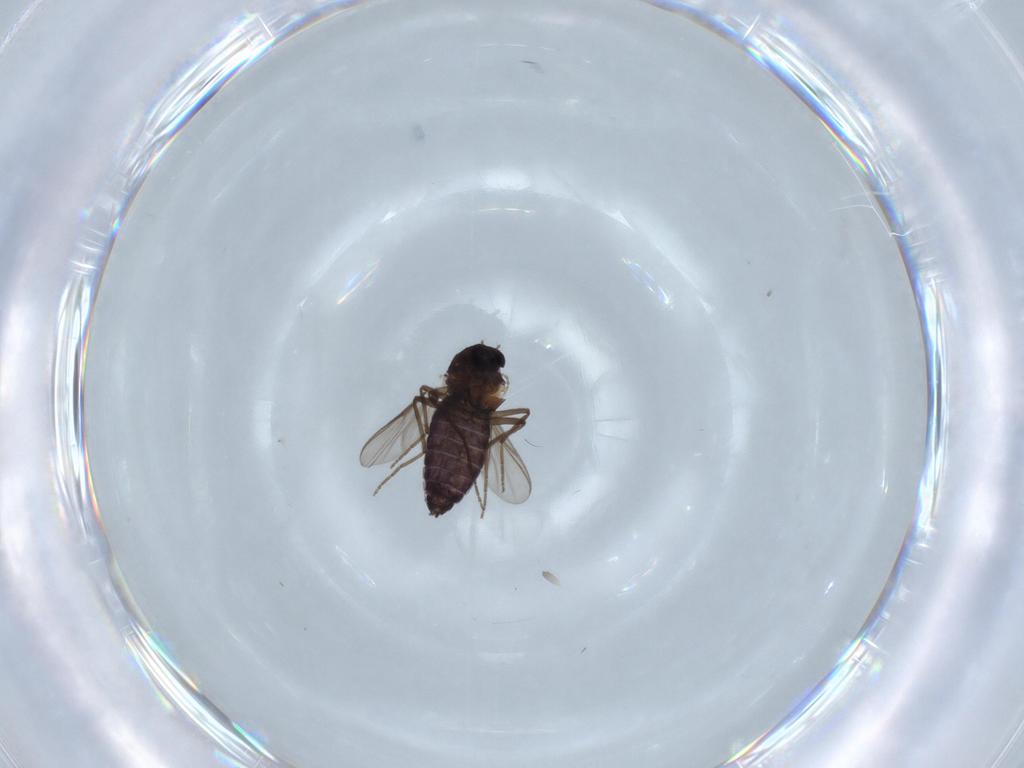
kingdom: Animalia
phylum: Arthropoda
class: Insecta
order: Diptera
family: Chironomidae
